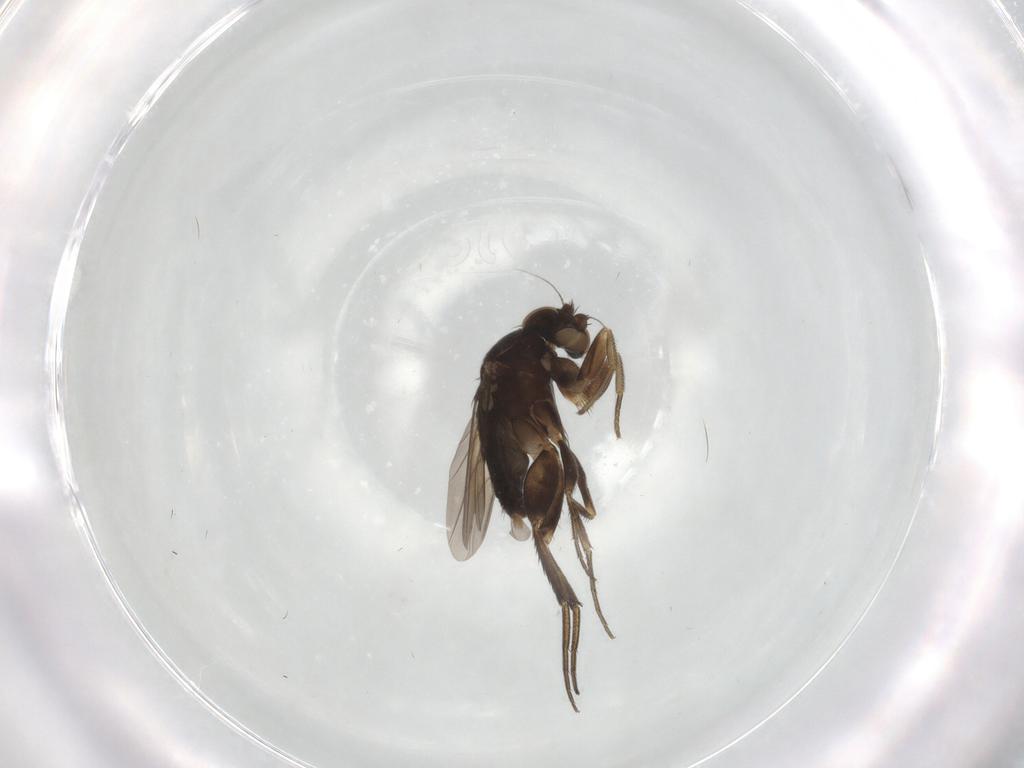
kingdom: Animalia
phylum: Arthropoda
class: Insecta
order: Diptera
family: Phoridae
